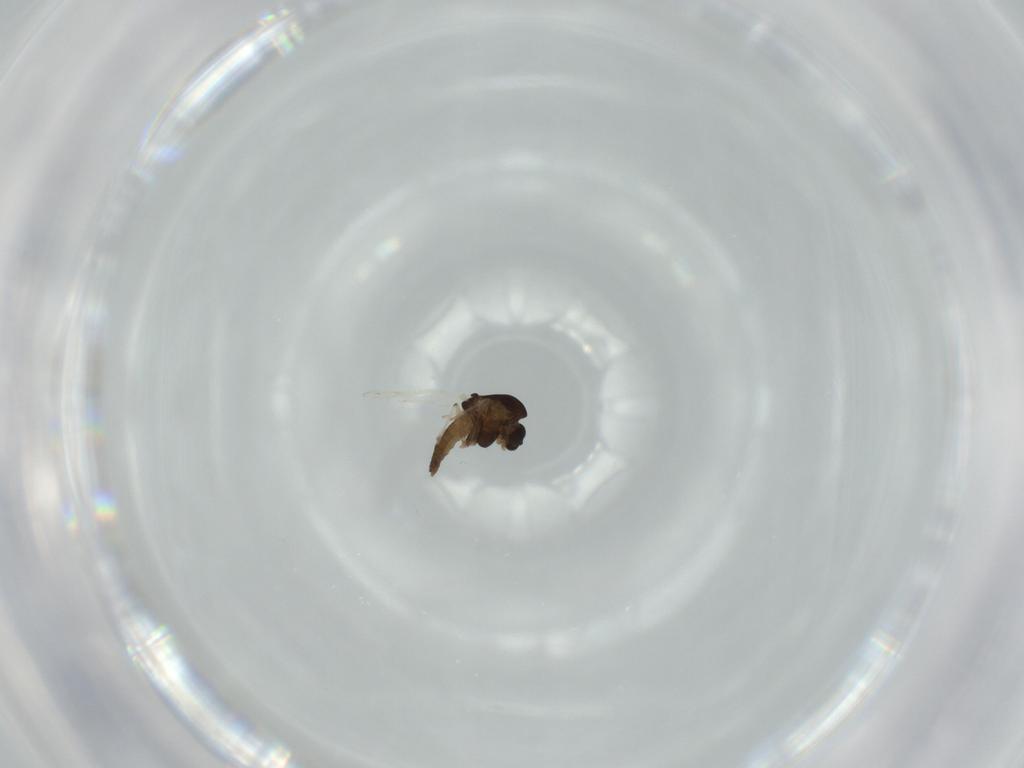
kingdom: Animalia
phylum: Arthropoda
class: Insecta
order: Diptera
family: Chironomidae
